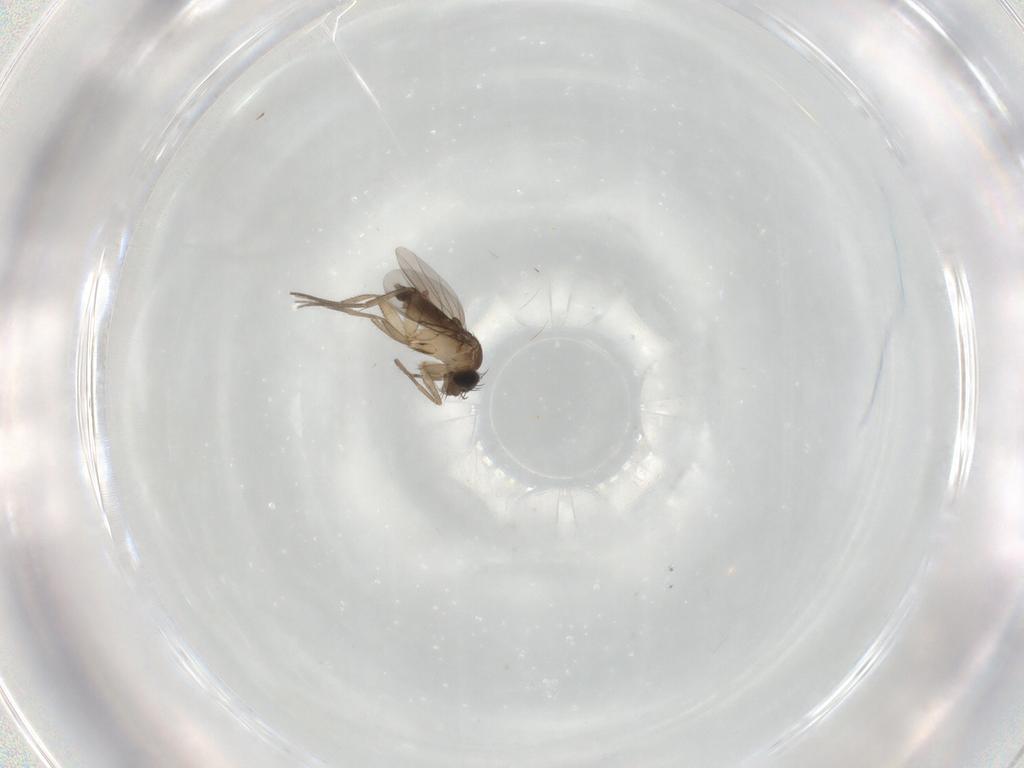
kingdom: Animalia
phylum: Arthropoda
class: Insecta
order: Diptera
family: Phoridae
